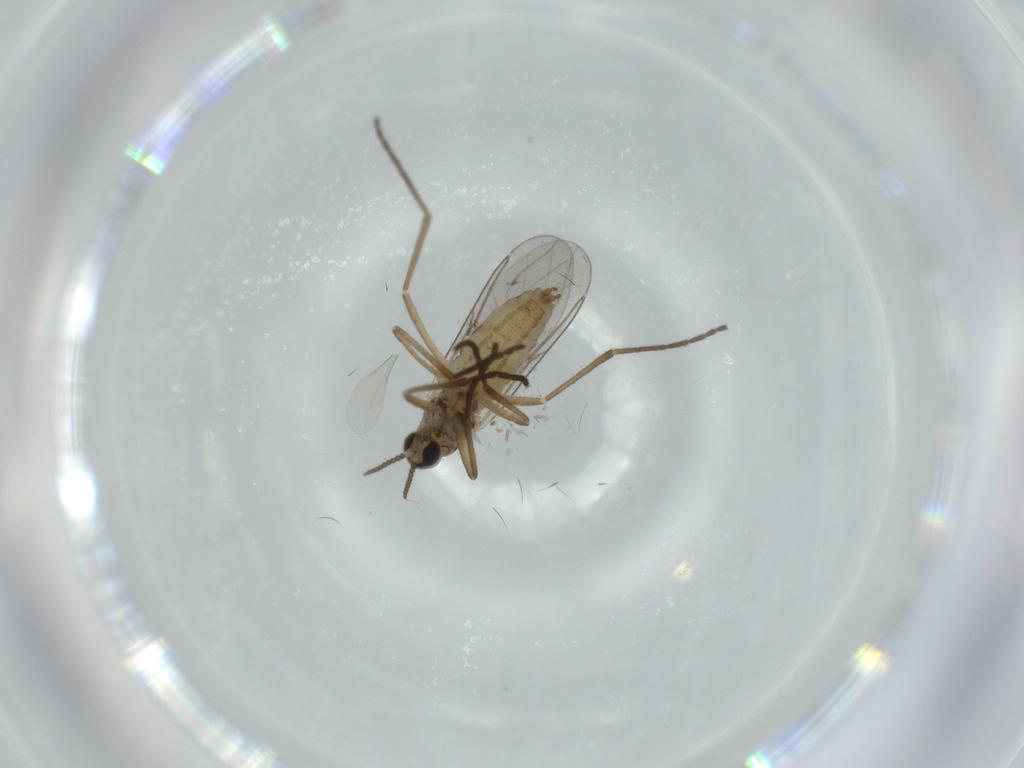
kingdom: Animalia
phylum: Arthropoda
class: Insecta
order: Diptera
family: Cecidomyiidae
